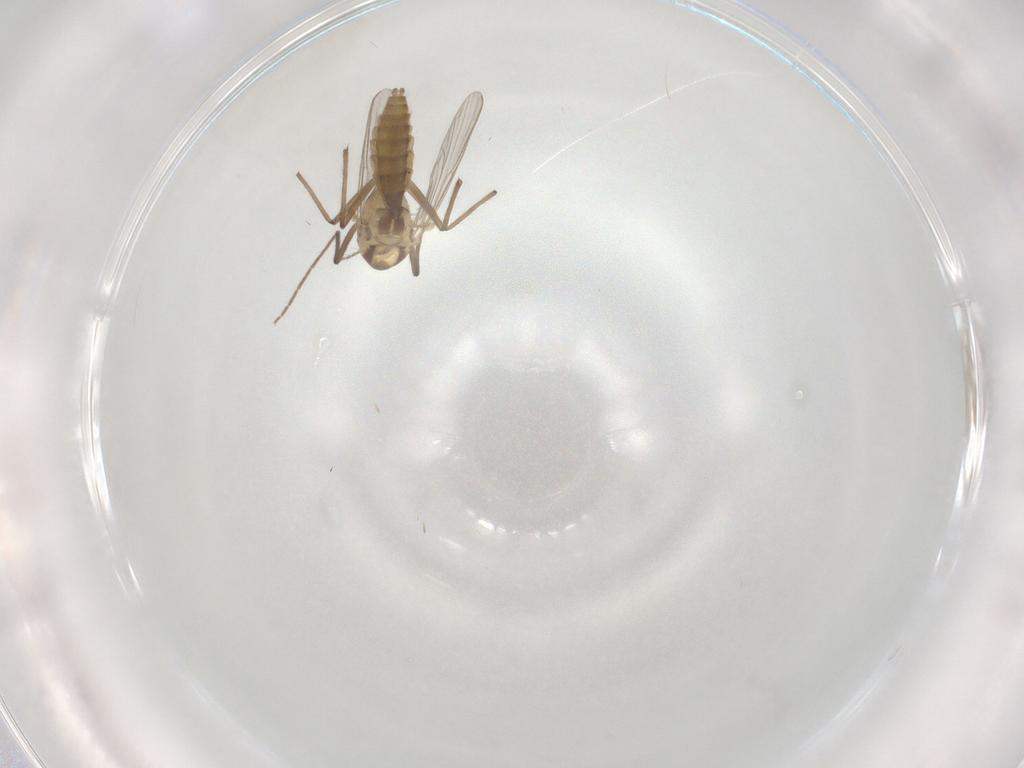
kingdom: Animalia
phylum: Arthropoda
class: Insecta
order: Diptera
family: Chironomidae
